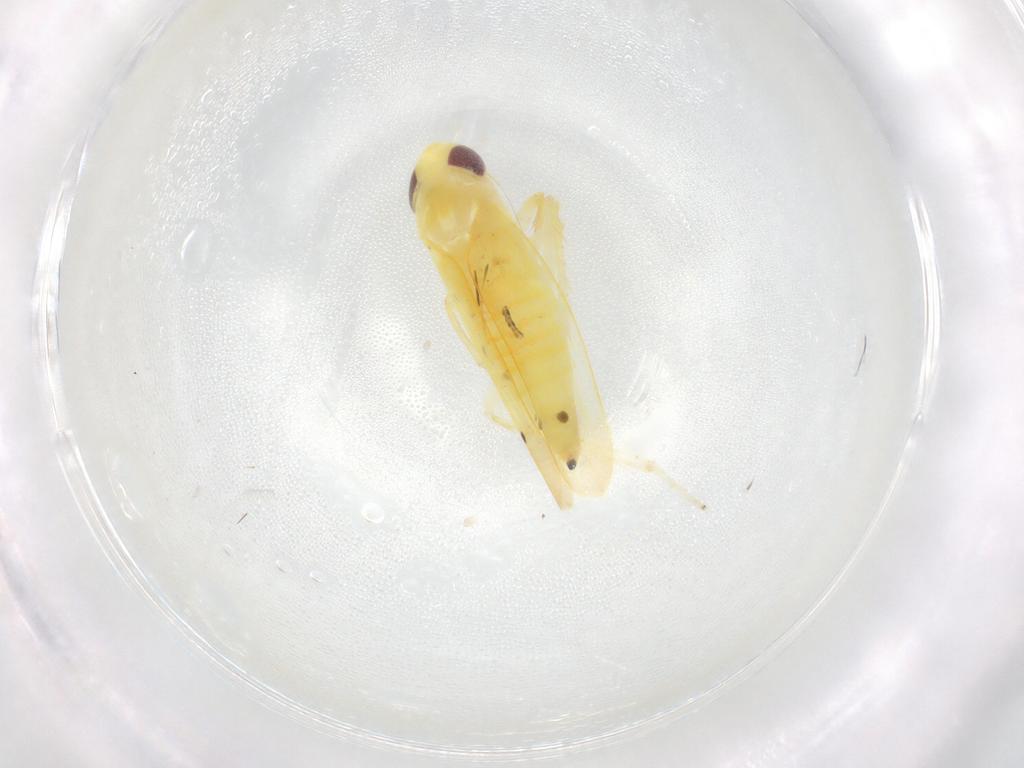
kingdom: Animalia
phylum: Arthropoda
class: Insecta
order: Hemiptera
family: Cicadellidae
